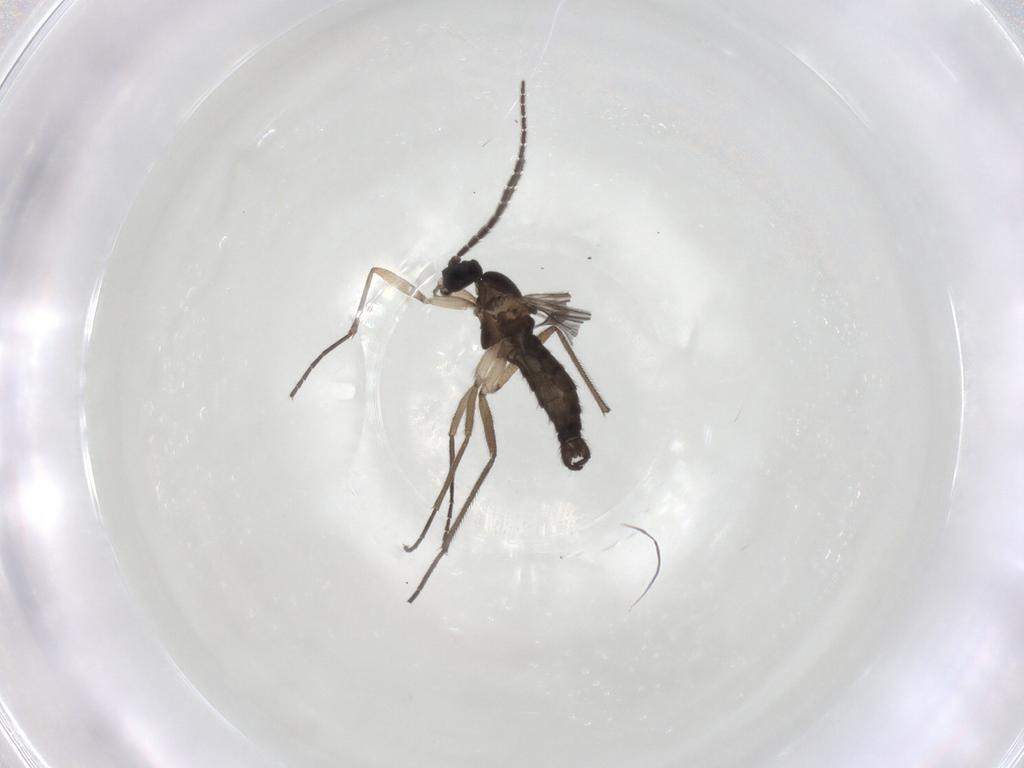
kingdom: Animalia
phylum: Arthropoda
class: Insecta
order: Diptera
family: Sciaridae
